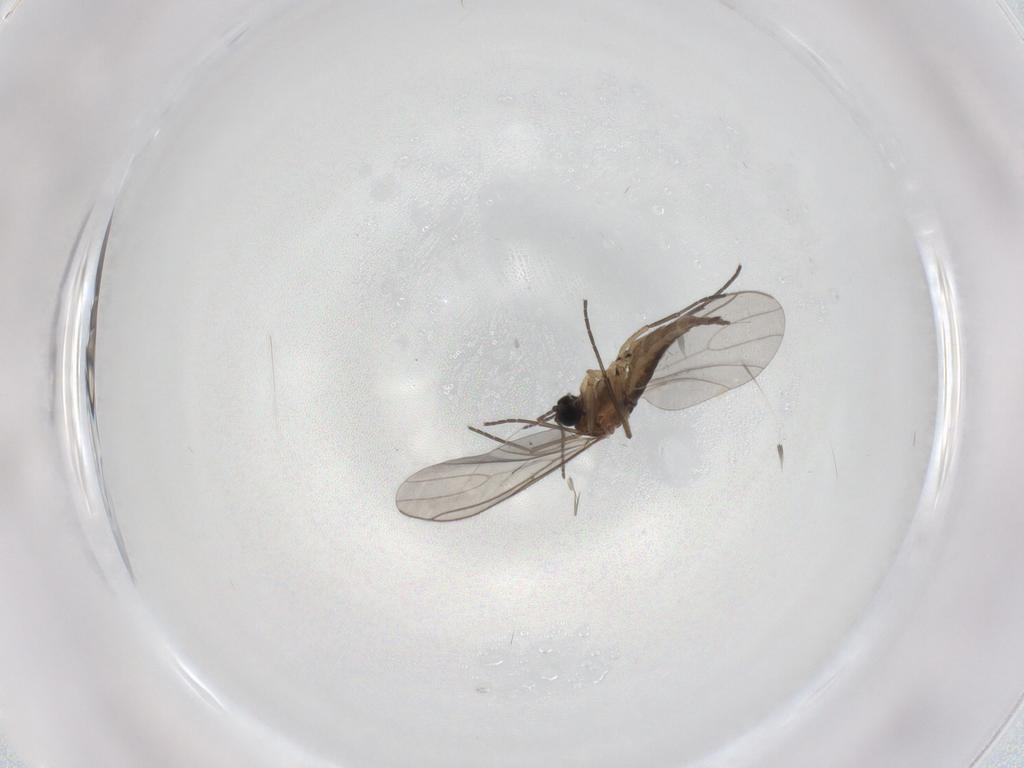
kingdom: Animalia
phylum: Arthropoda
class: Insecta
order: Diptera
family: Sciaridae
